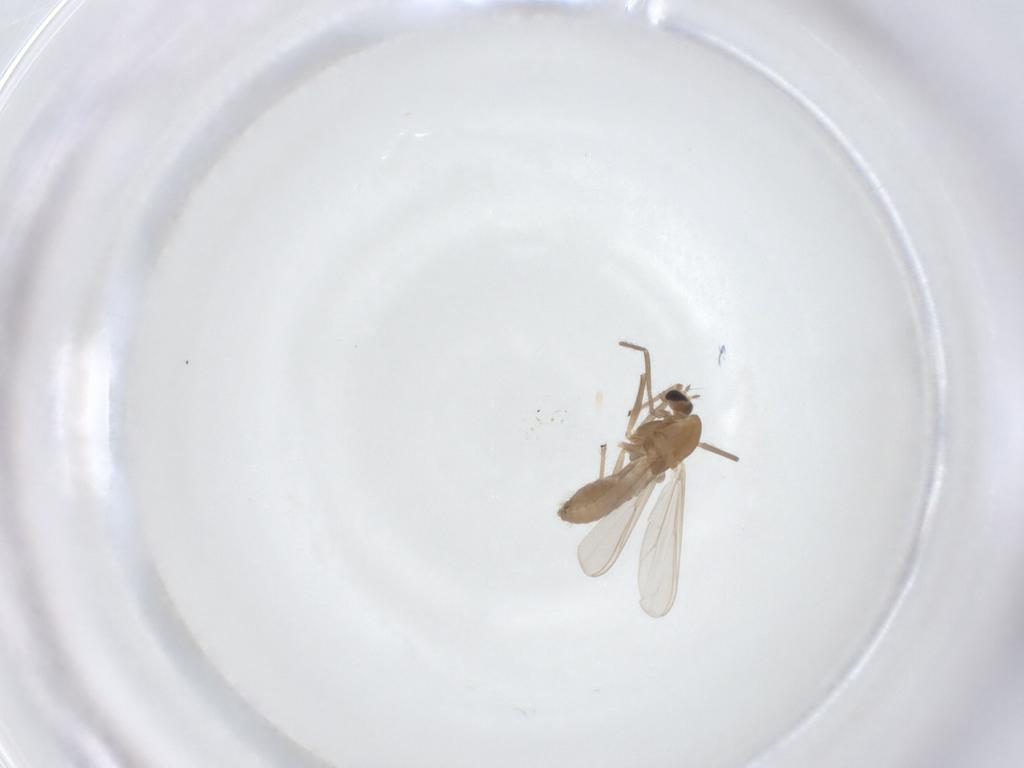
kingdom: Animalia
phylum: Arthropoda
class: Insecta
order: Diptera
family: Chironomidae
